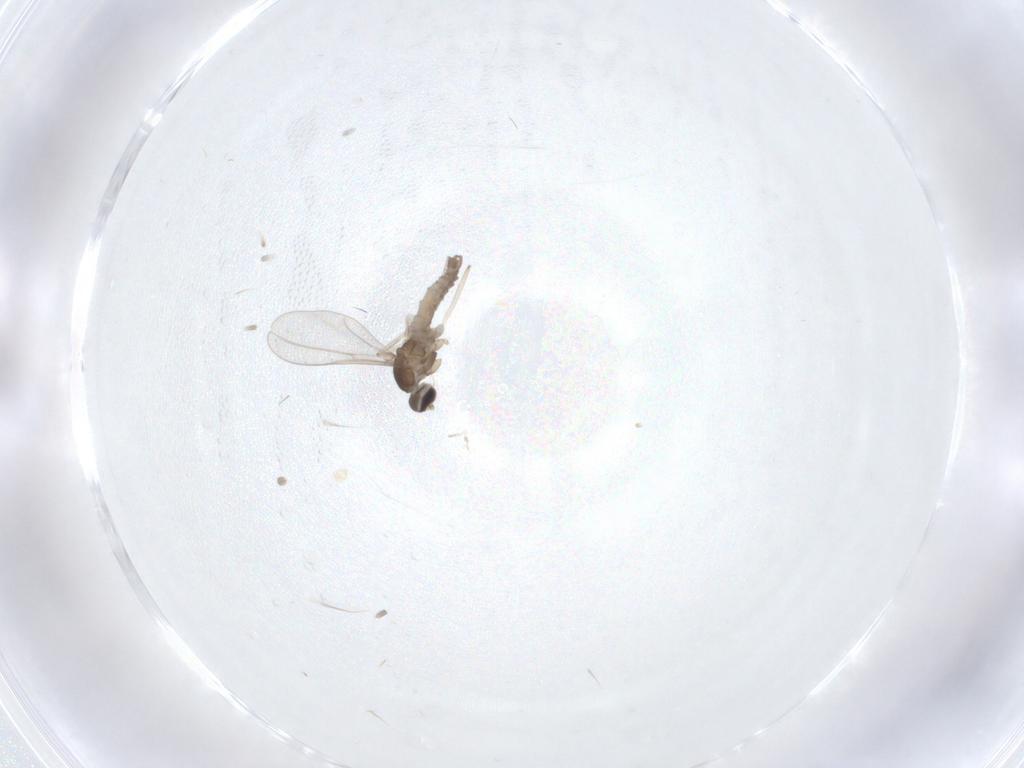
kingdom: Animalia
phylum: Arthropoda
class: Insecta
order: Diptera
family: Cecidomyiidae
